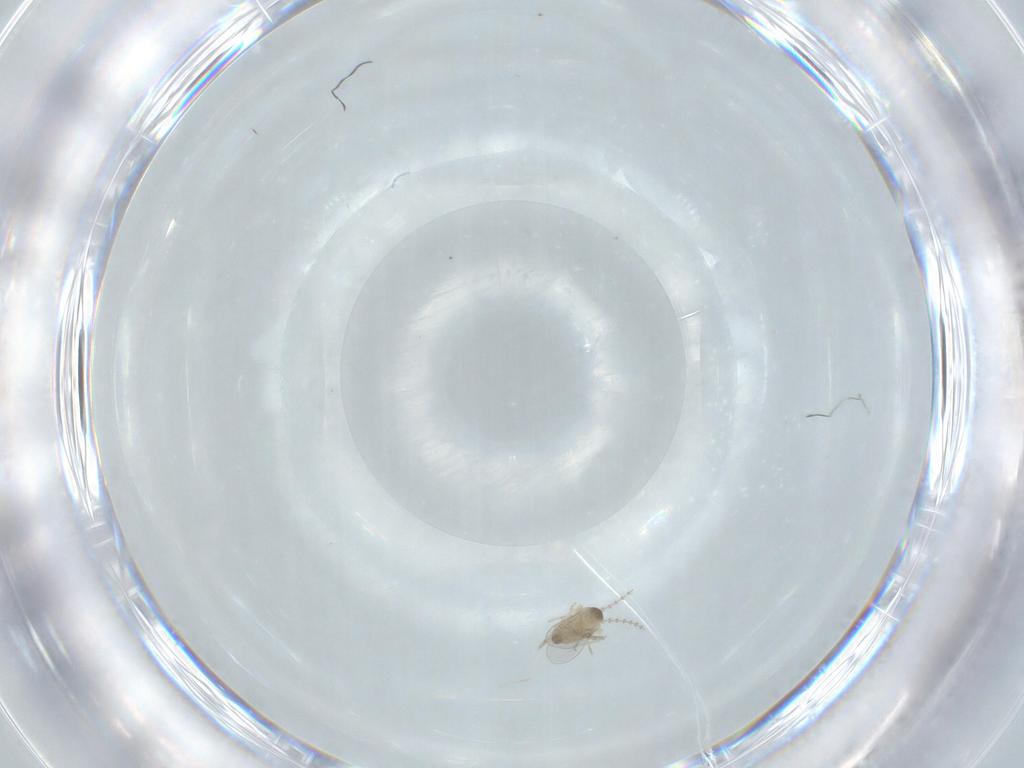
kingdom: Animalia
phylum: Arthropoda
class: Insecta
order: Diptera
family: Cecidomyiidae
